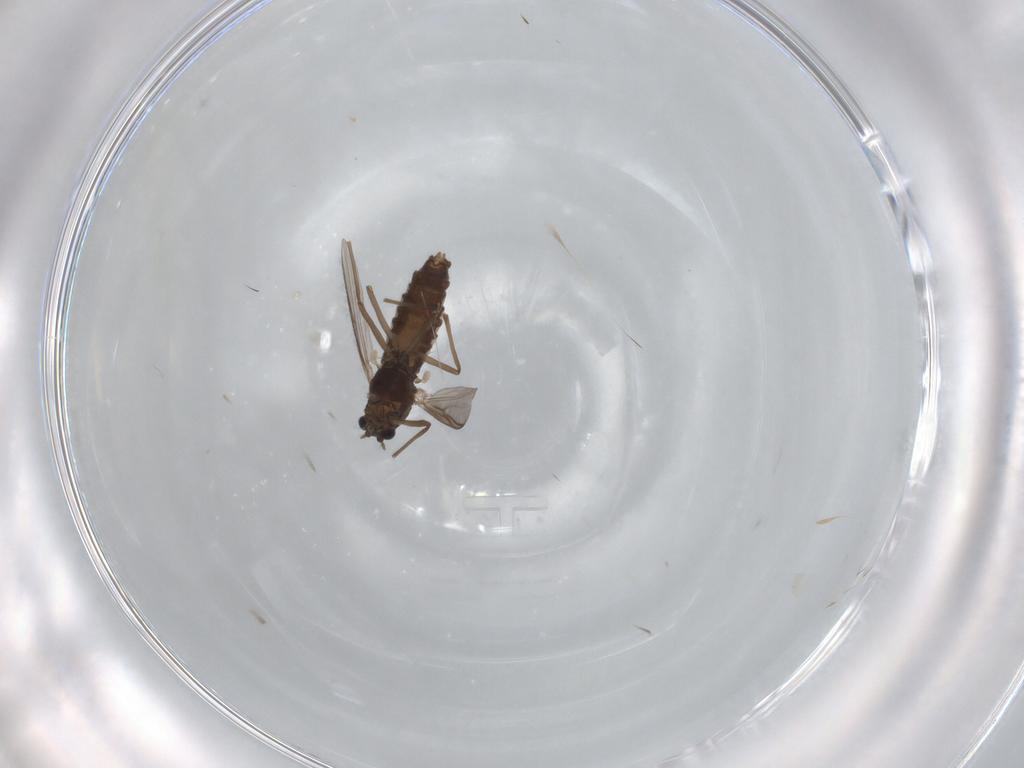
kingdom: Animalia
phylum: Arthropoda
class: Insecta
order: Diptera
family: Chironomidae
